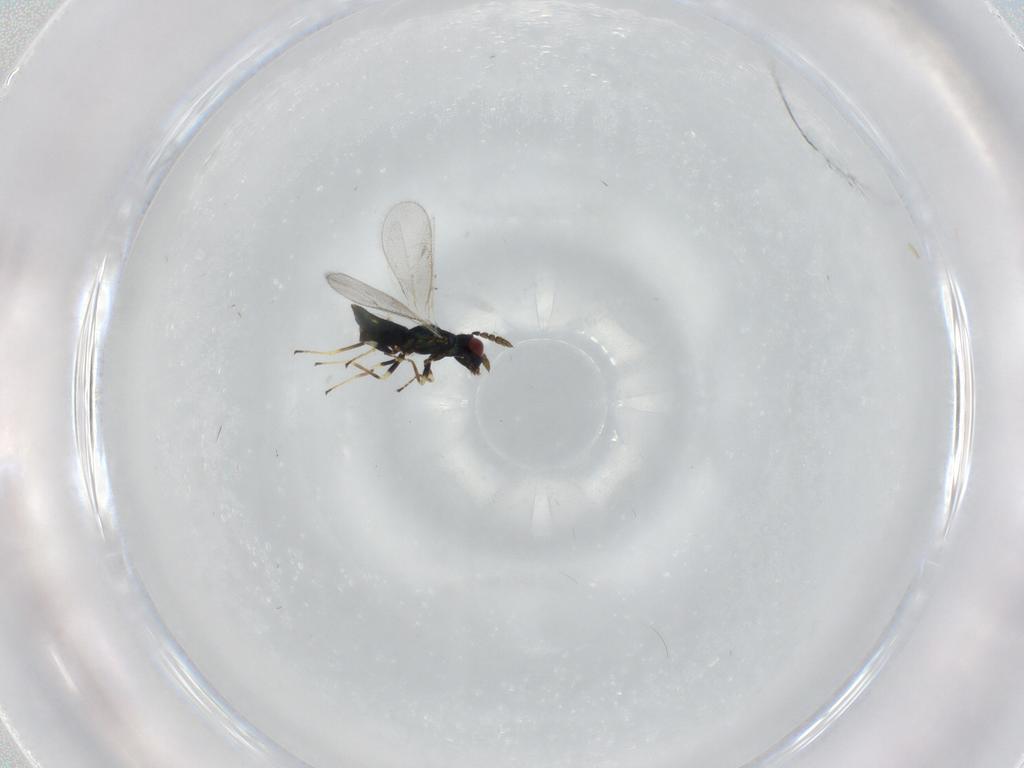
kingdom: Animalia
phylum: Arthropoda
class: Insecta
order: Hymenoptera
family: Eulophidae
